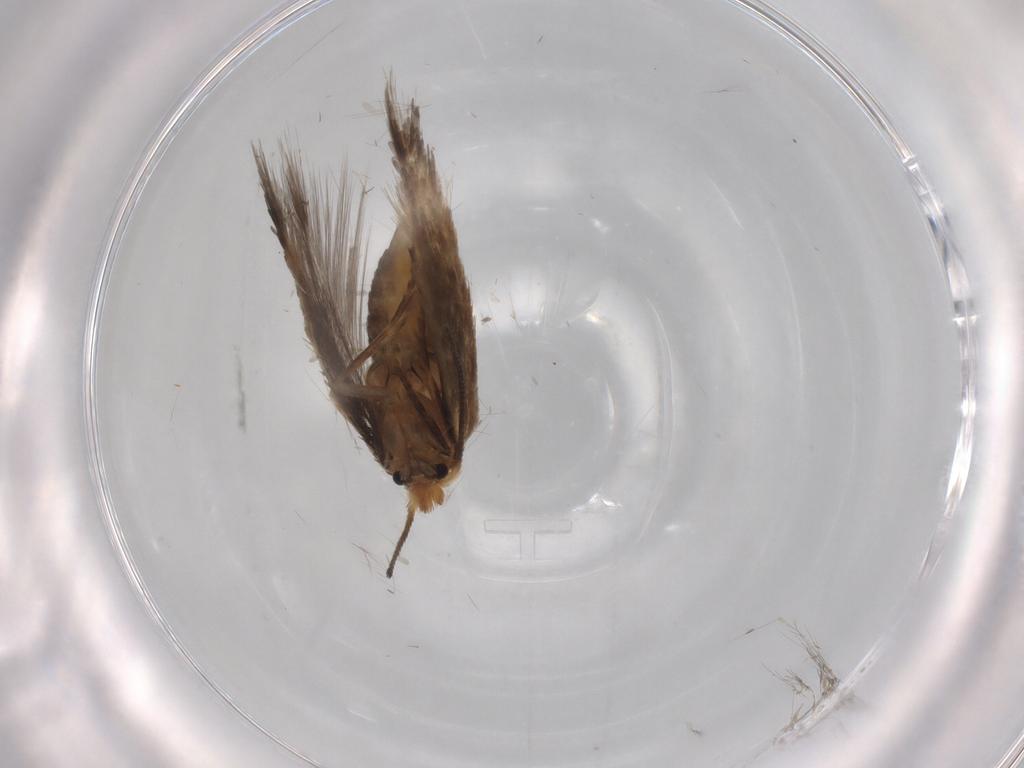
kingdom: Animalia
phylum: Arthropoda
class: Insecta
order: Lepidoptera
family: Nepticulidae
